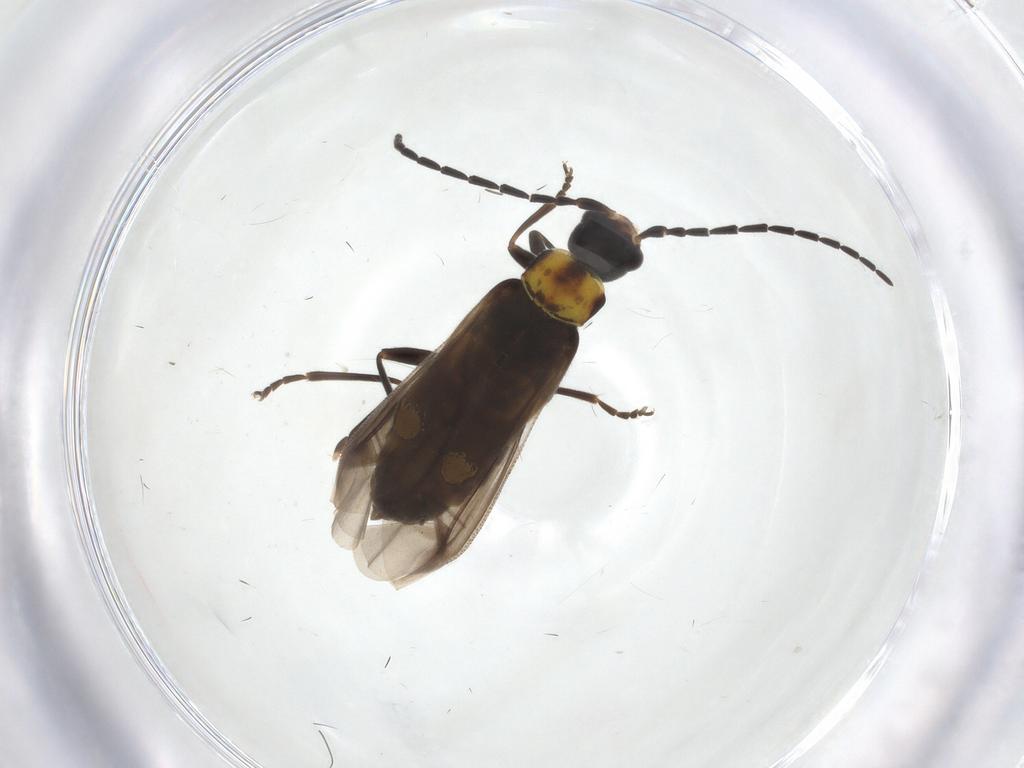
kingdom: Animalia
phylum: Arthropoda
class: Insecta
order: Coleoptera
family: Cantharidae
